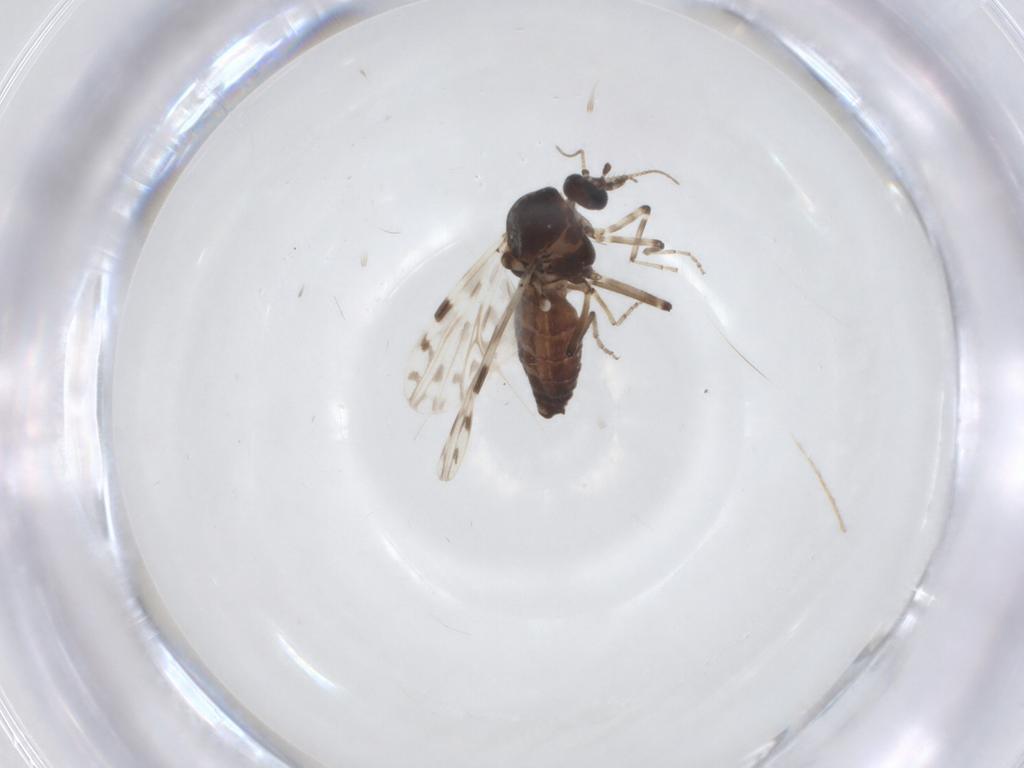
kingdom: Animalia
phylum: Arthropoda
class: Insecta
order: Diptera
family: Ceratopogonidae
